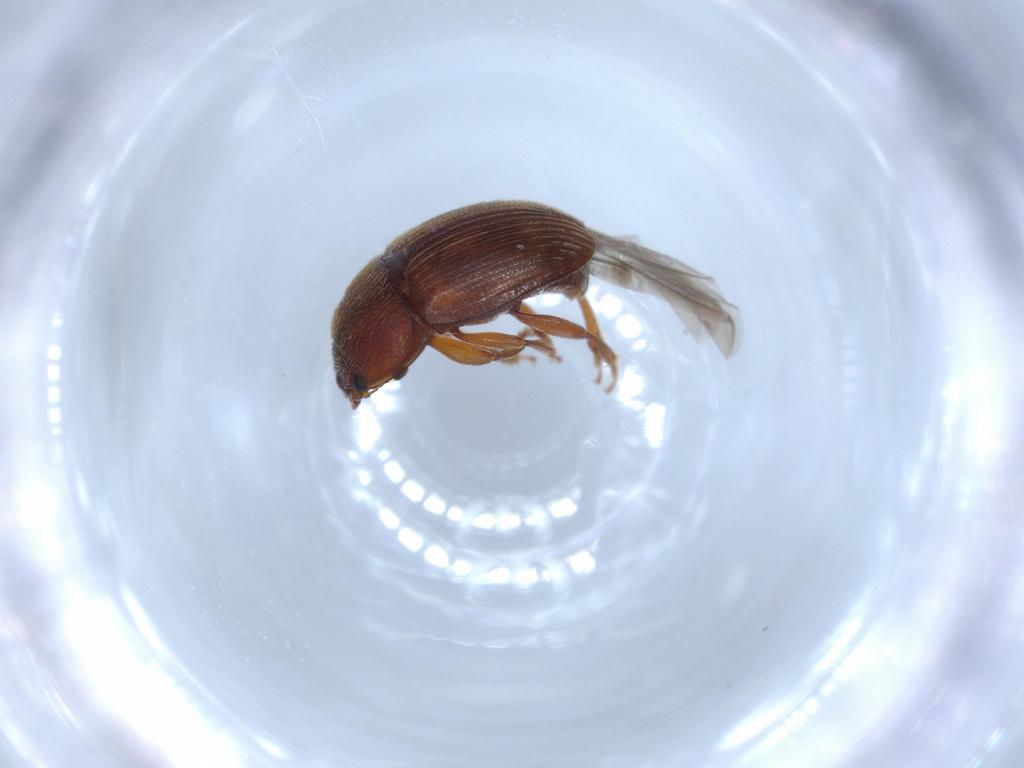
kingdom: Animalia
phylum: Arthropoda
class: Insecta
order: Coleoptera
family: Chrysomelidae
